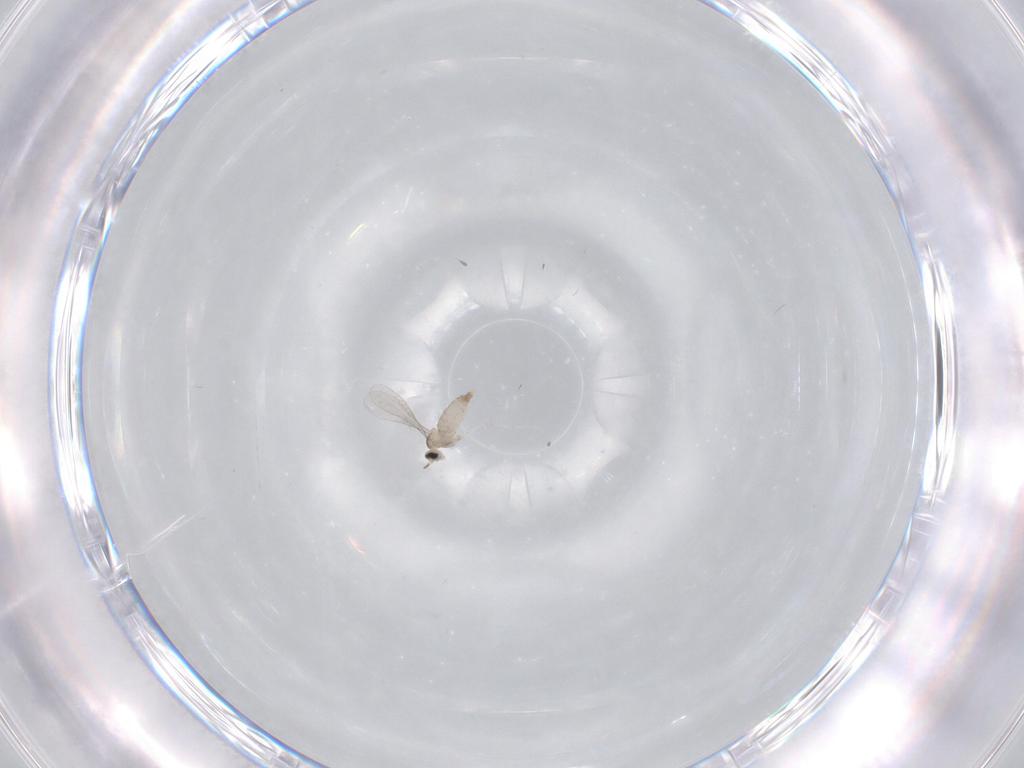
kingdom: Animalia
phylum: Arthropoda
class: Insecta
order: Diptera
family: Cecidomyiidae
